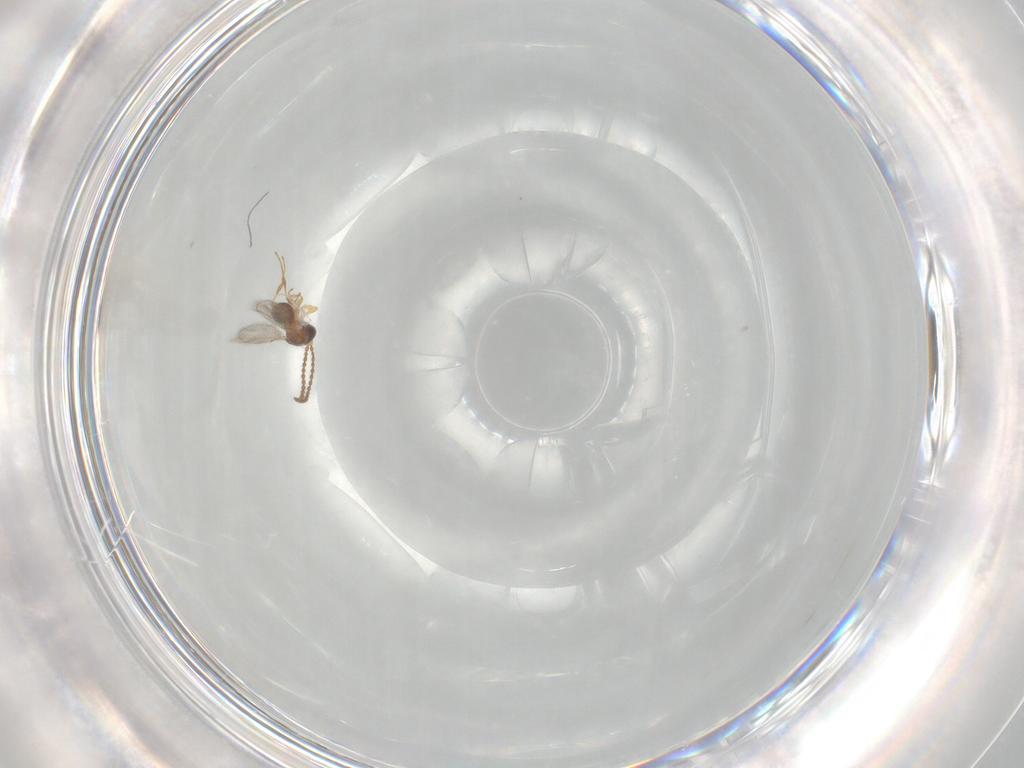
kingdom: Animalia
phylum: Arthropoda
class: Insecta
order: Hymenoptera
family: Diapriidae
